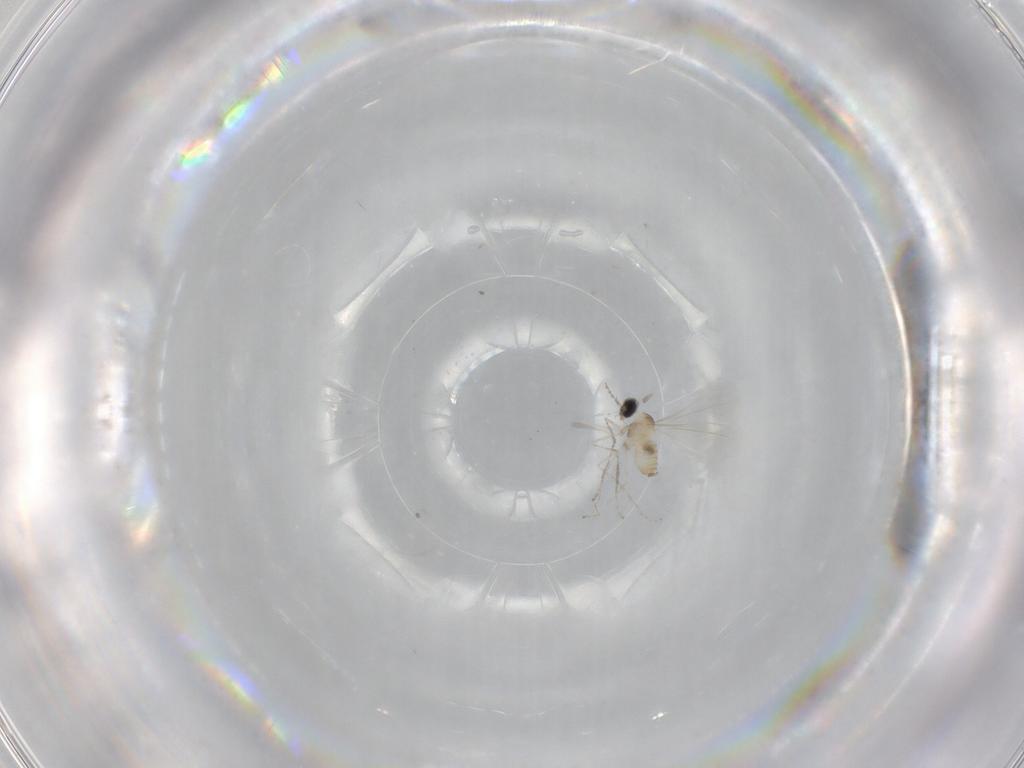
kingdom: Animalia
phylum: Arthropoda
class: Insecta
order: Diptera
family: Cecidomyiidae
